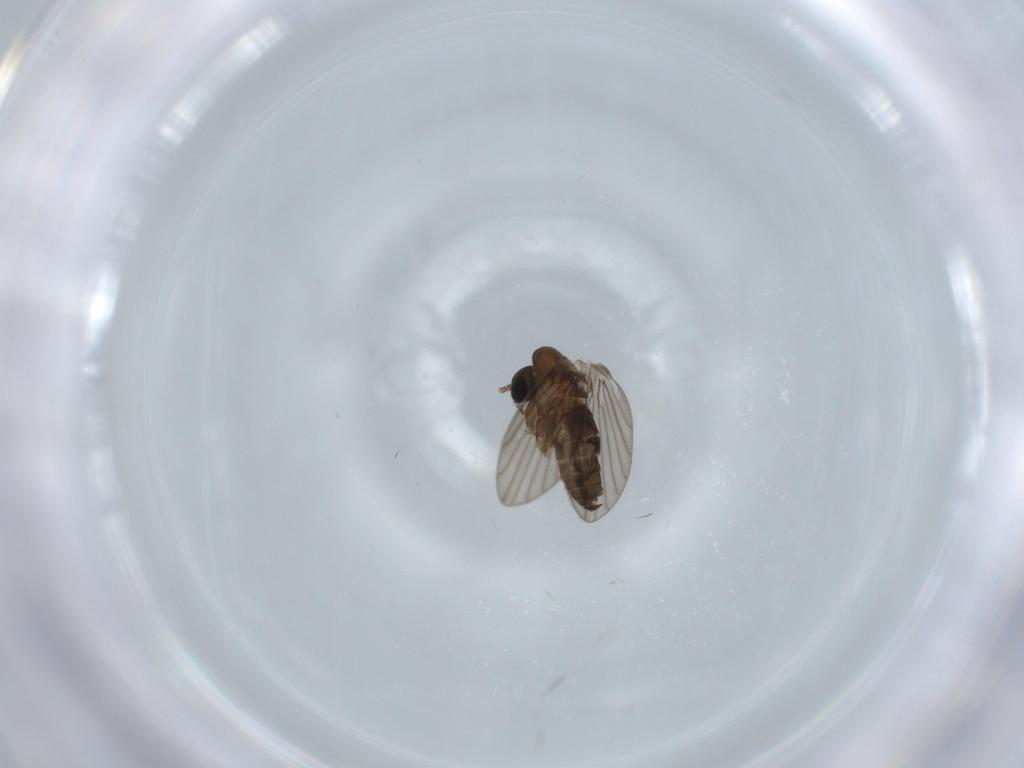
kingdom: Animalia
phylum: Arthropoda
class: Insecta
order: Diptera
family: Psychodidae
